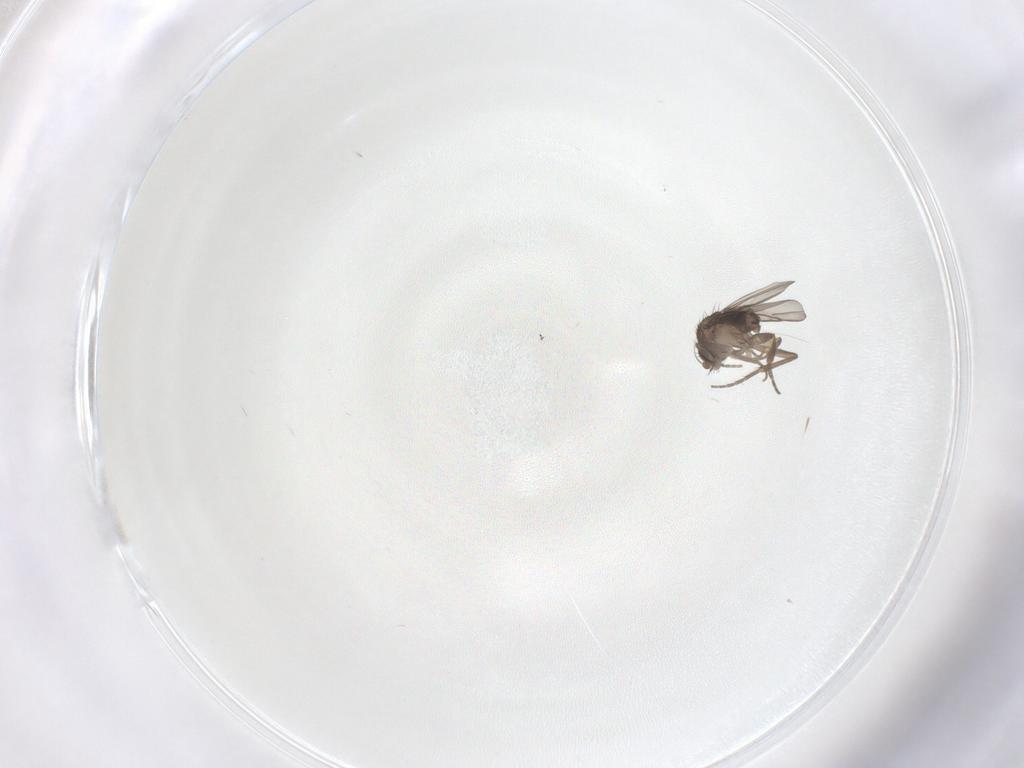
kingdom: Animalia
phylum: Arthropoda
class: Insecta
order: Diptera
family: Phoridae
